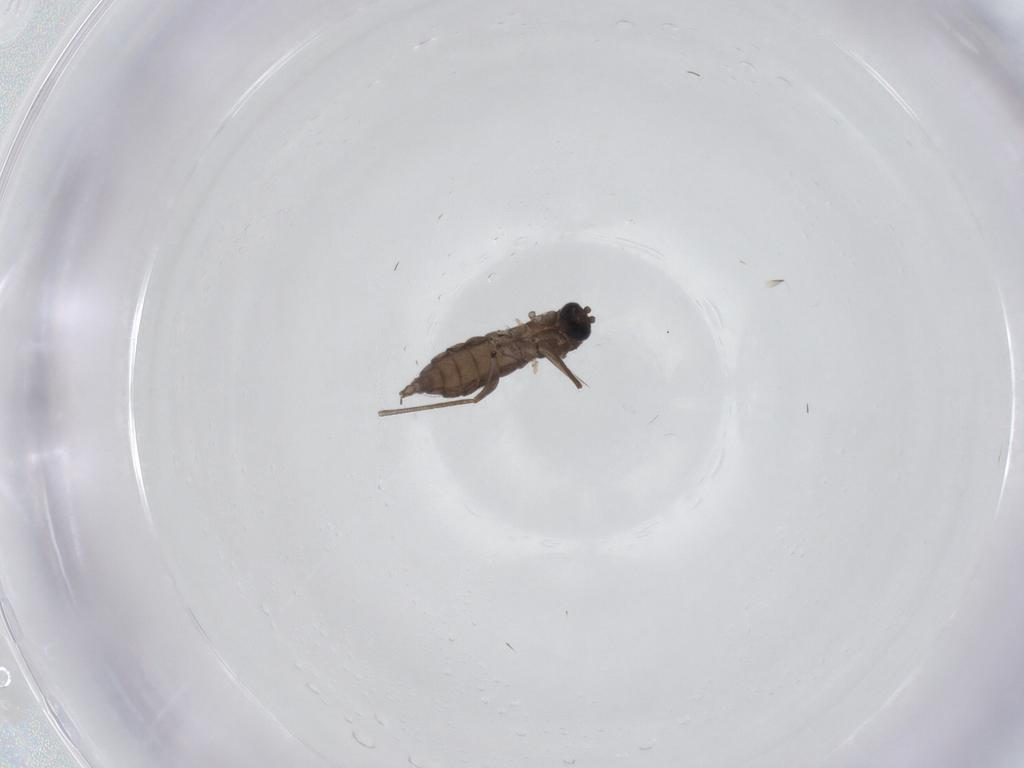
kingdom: Animalia
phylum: Arthropoda
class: Insecta
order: Diptera
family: Sciaridae
